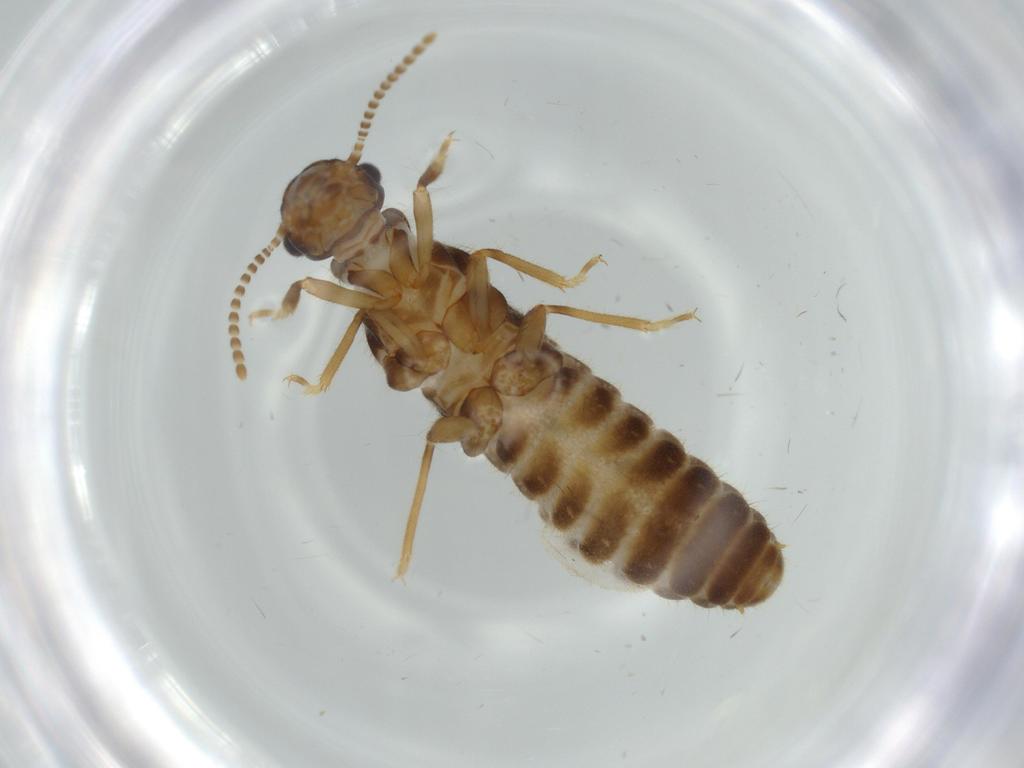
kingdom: Animalia
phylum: Arthropoda
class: Insecta
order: Blattodea
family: Termitidae
